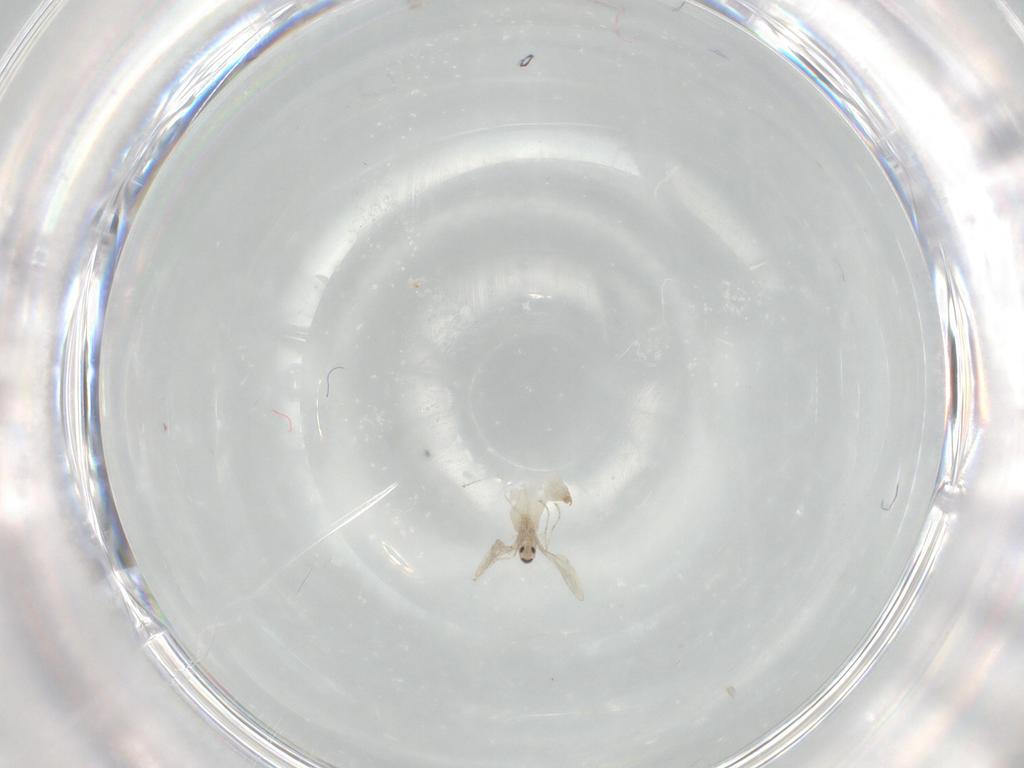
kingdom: Animalia
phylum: Arthropoda
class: Insecta
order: Diptera
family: Cecidomyiidae
